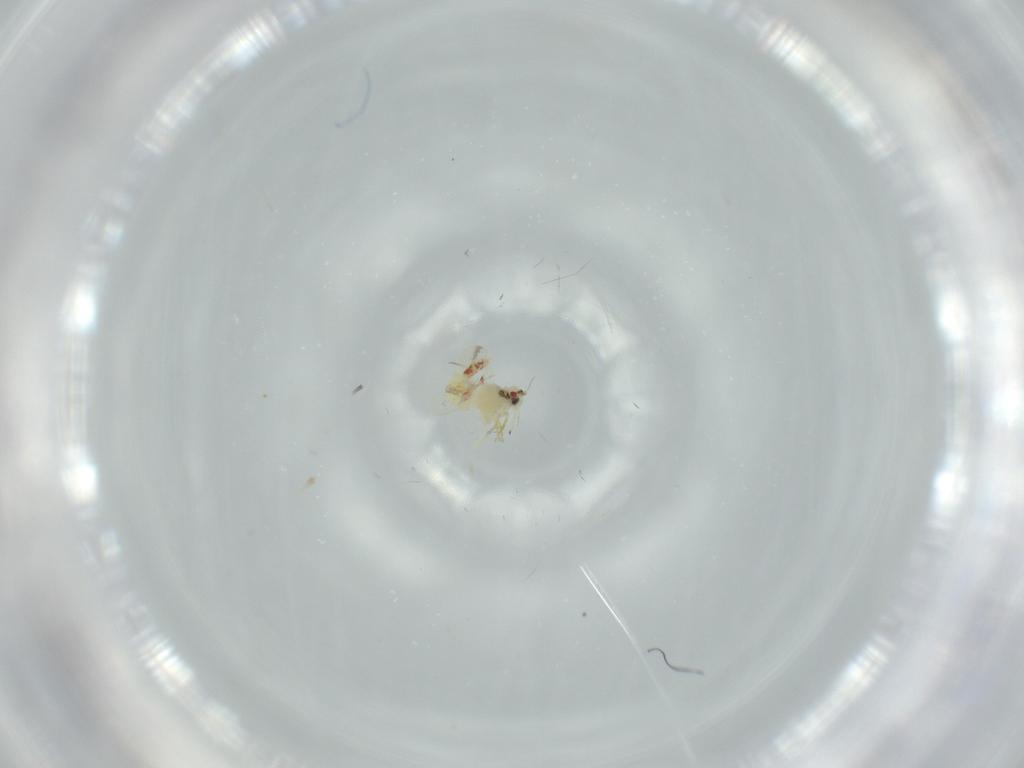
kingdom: Animalia
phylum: Arthropoda
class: Insecta
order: Hemiptera
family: Aleyrodidae
